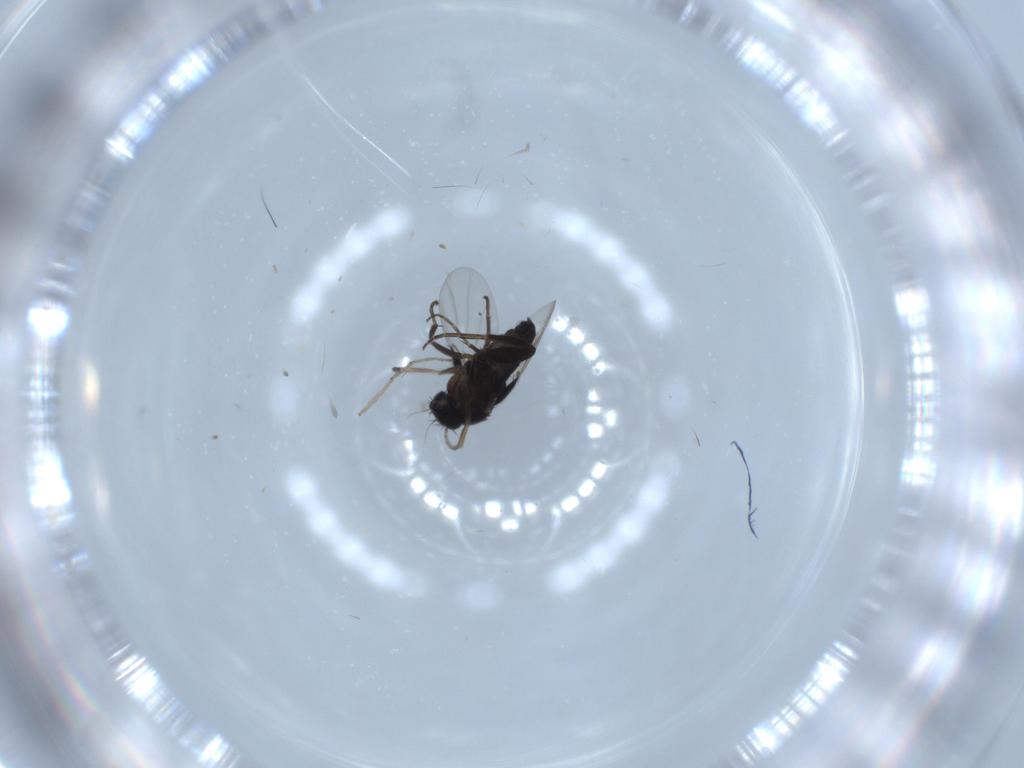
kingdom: Animalia
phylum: Arthropoda
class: Insecta
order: Diptera
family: Phoridae
